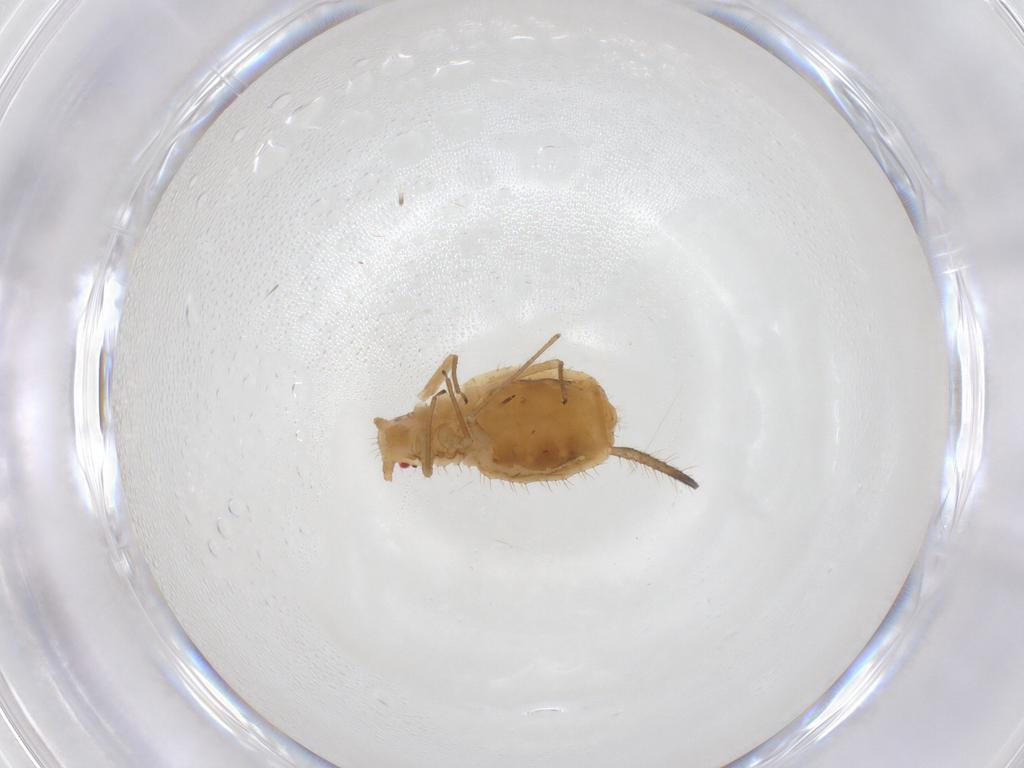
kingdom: Animalia
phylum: Arthropoda
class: Insecta
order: Hemiptera
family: Aphididae
